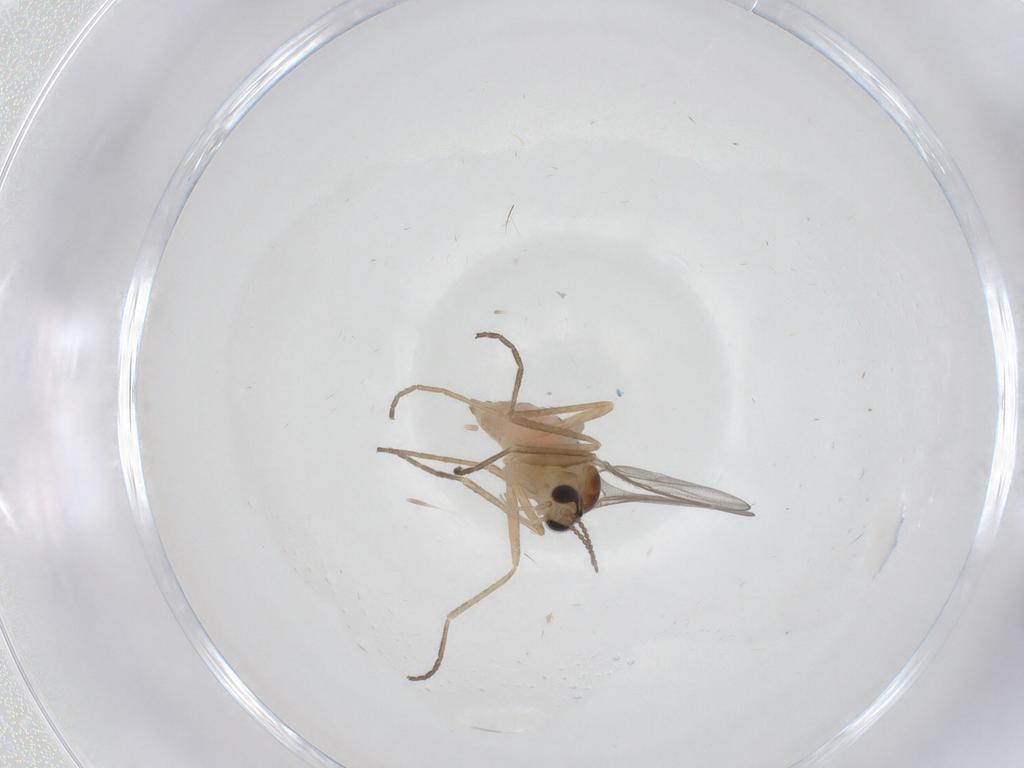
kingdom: Animalia
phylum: Arthropoda
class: Insecta
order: Diptera
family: Cecidomyiidae
